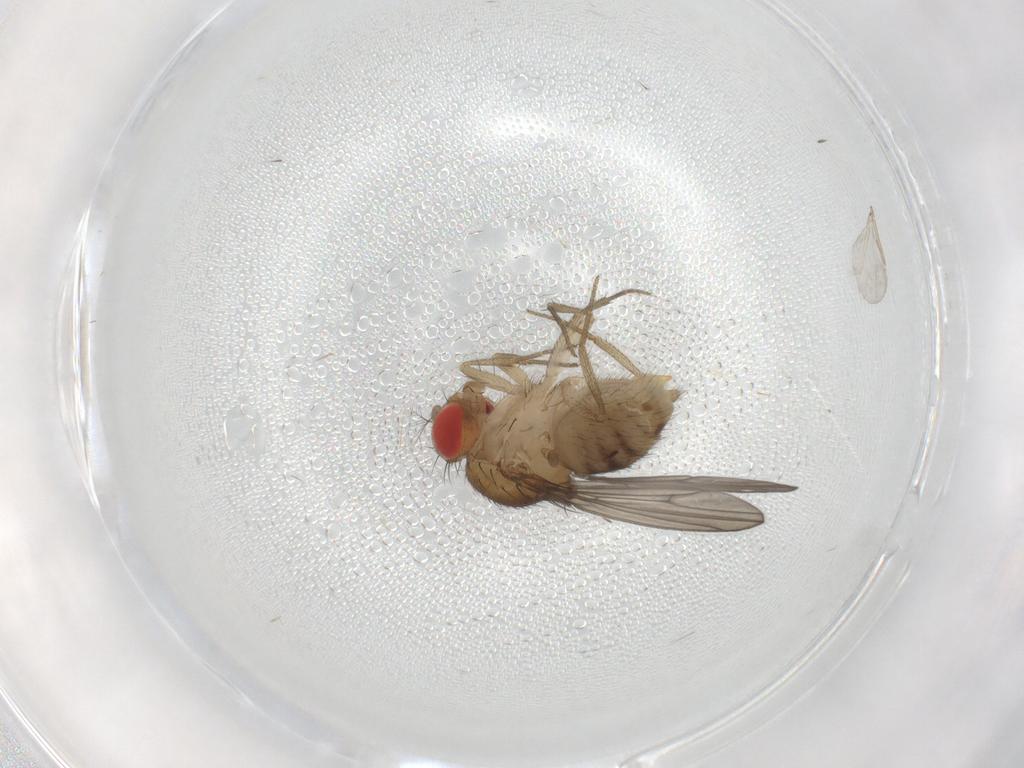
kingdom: Animalia
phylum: Arthropoda
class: Insecta
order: Diptera
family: Drosophilidae
